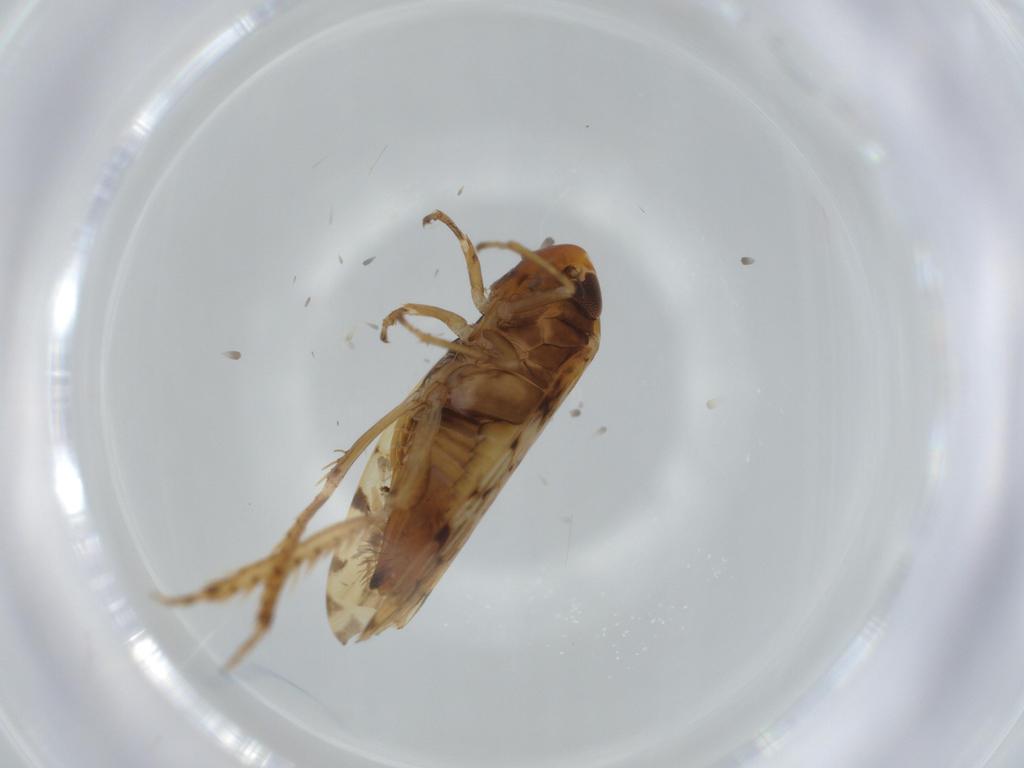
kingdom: Animalia
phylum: Arthropoda
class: Insecta
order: Hemiptera
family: Cicadellidae
